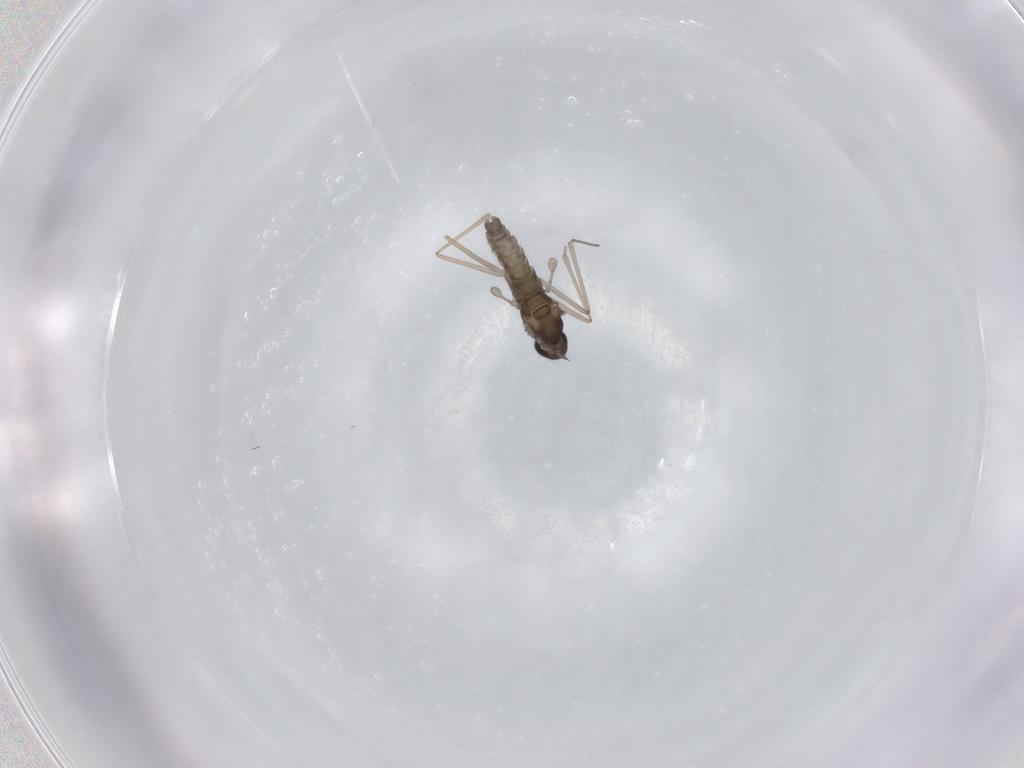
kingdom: Animalia
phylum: Arthropoda
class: Insecta
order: Diptera
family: Cecidomyiidae
